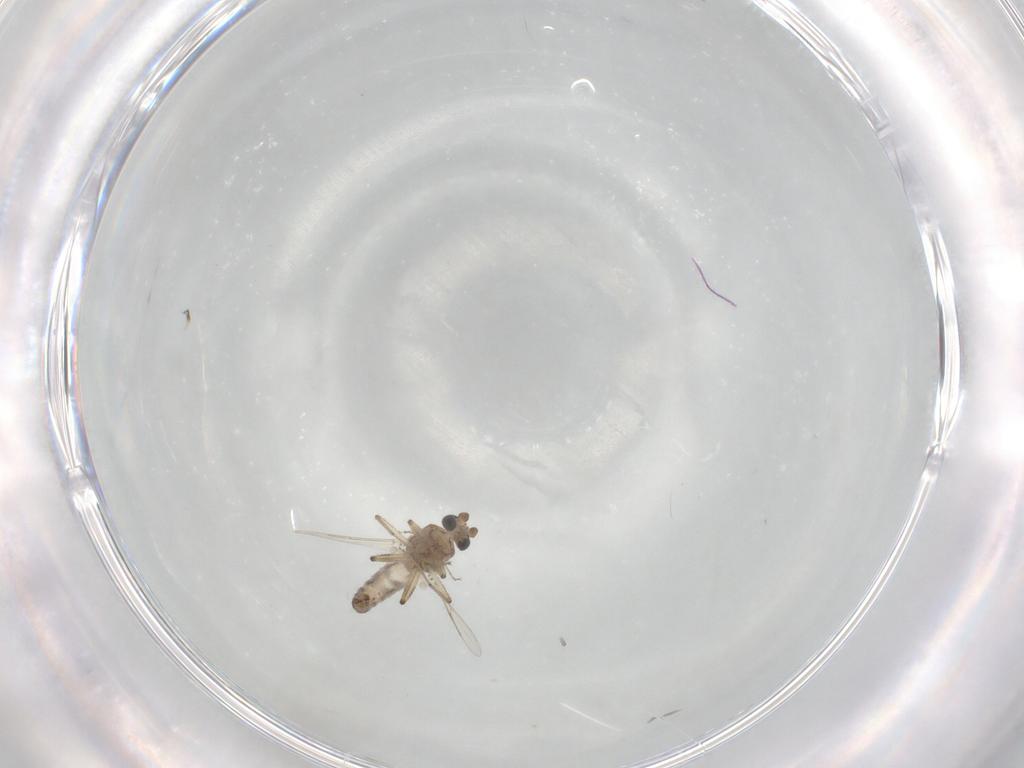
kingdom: Animalia
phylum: Arthropoda
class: Insecta
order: Diptera
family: Ceratopogonidae
